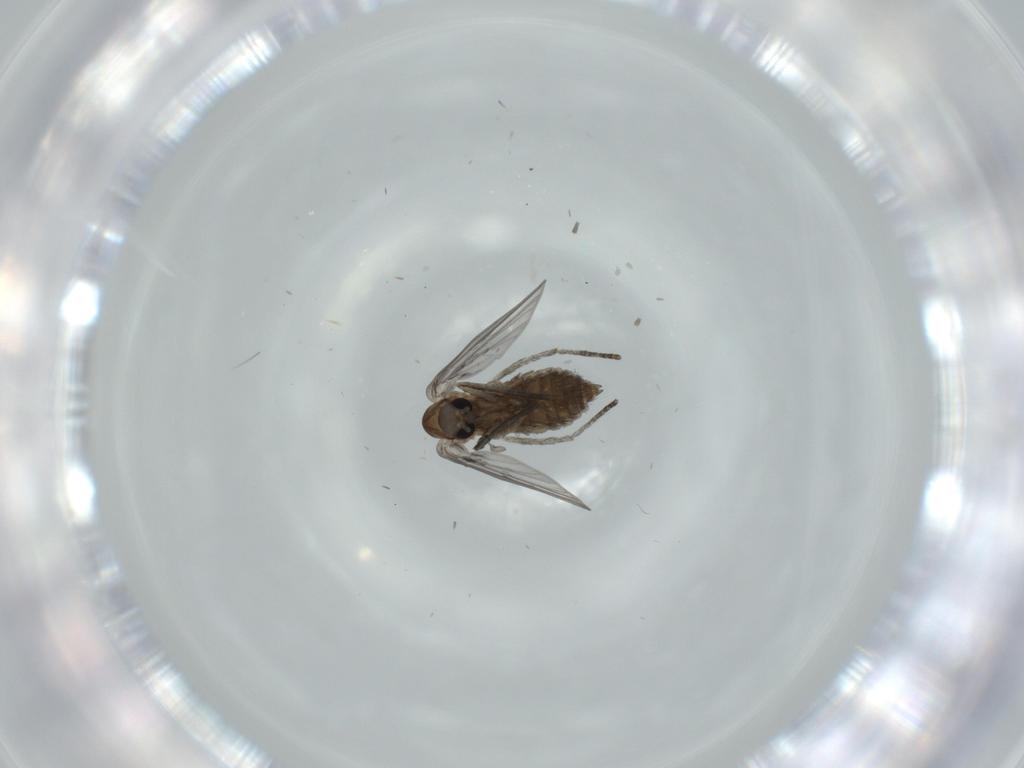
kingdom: Animalia
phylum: Arthropoda
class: Insecta
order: Diptera
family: Psychodidae
